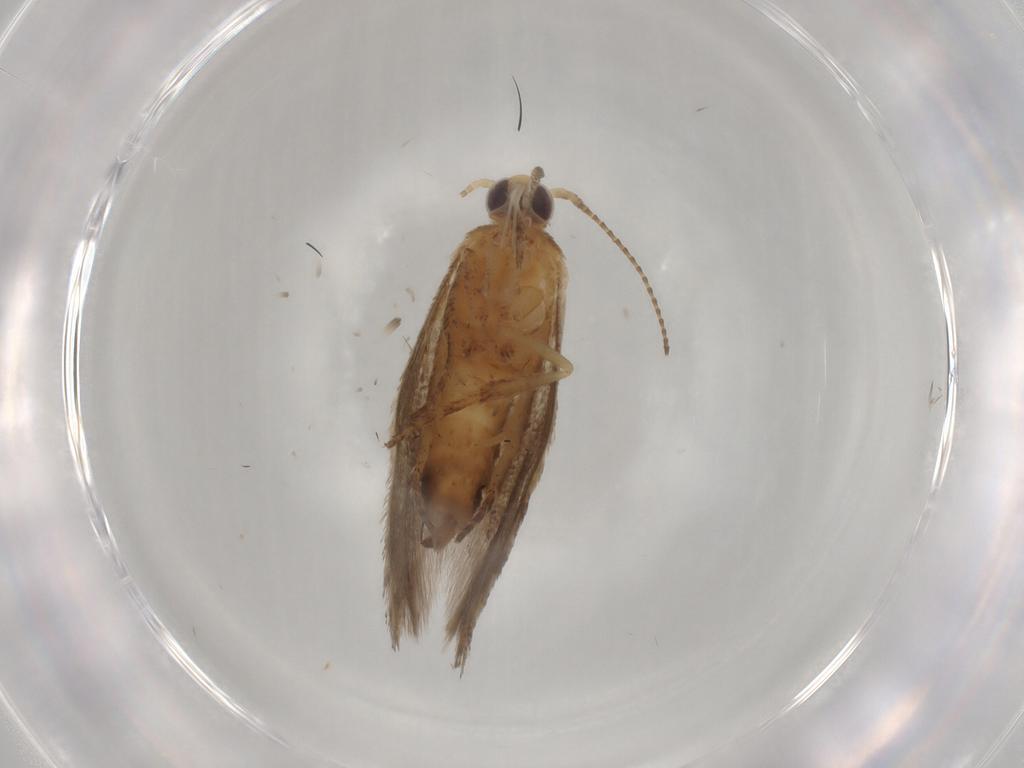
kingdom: Animalia
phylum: Arthropoda
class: Insecta
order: Lepidoptera
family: Plutellidae
